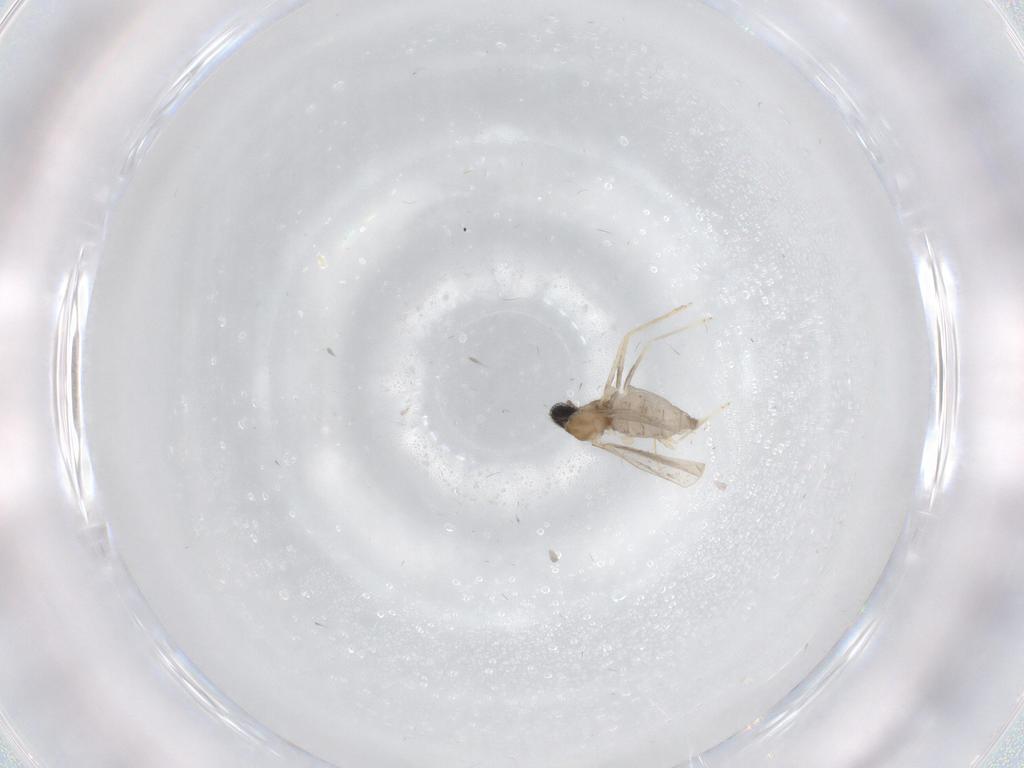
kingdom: Animalia
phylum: Arthropoda
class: Insecta
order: Diptera
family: Cecidomyiidae
